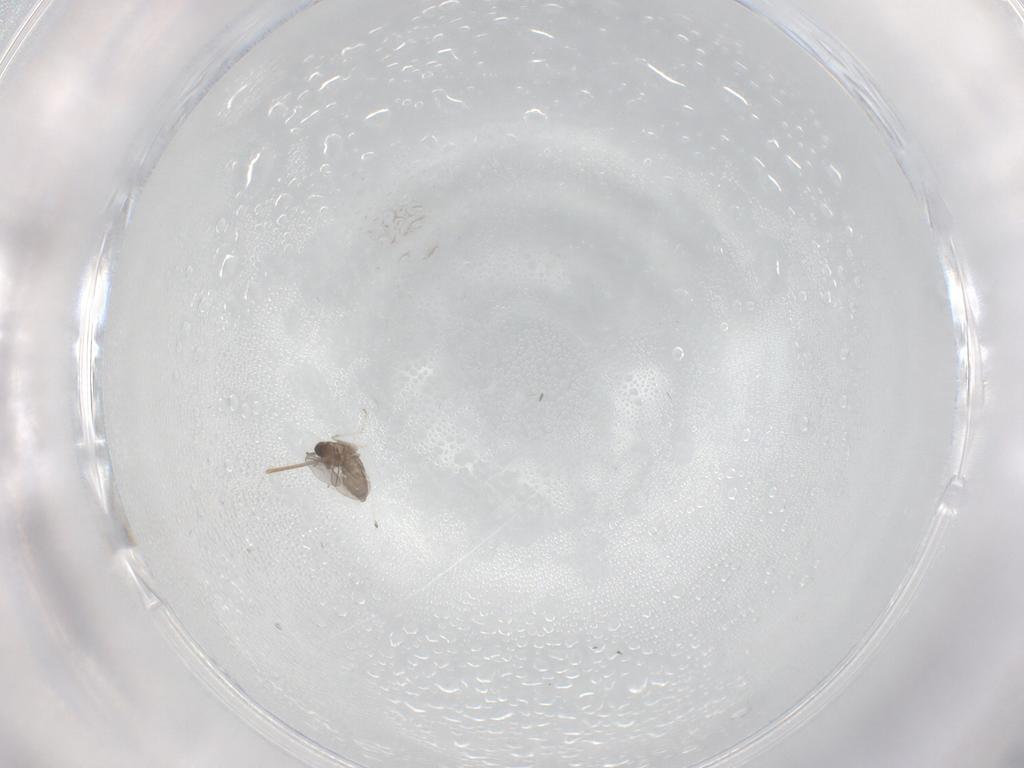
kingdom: Animalia
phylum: Arthropoda
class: Insecta
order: Diptera
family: Cecidomyiidae
